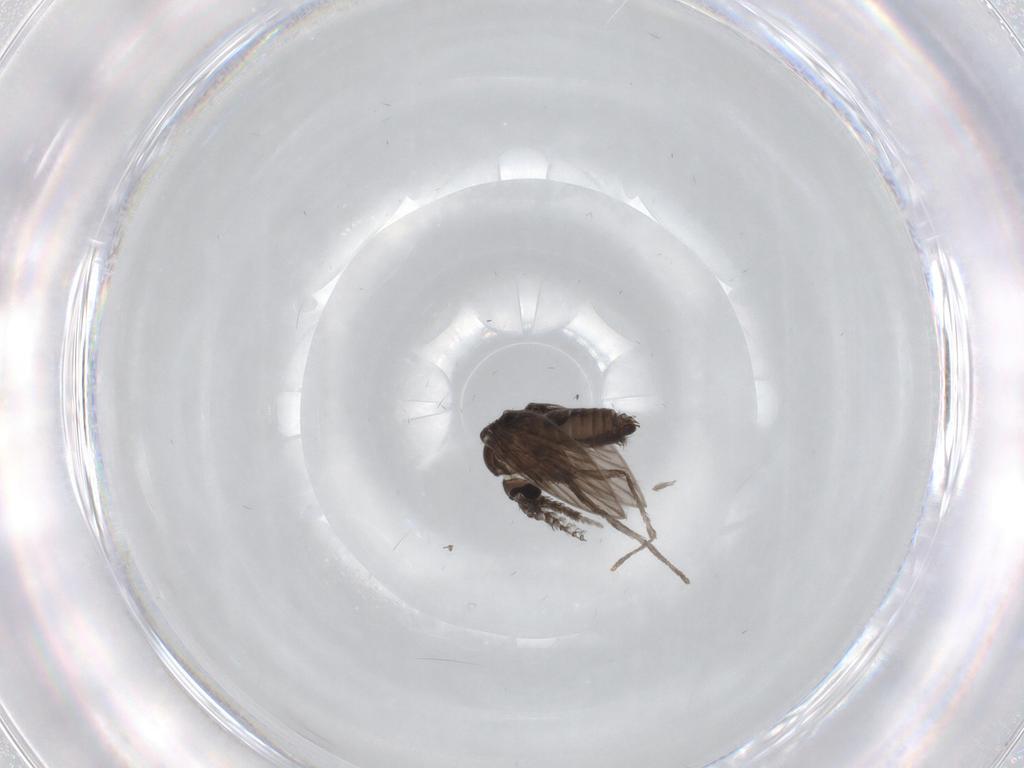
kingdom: Animalia
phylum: Arthropoda
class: Insecta
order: Diptera
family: Psychodidae
